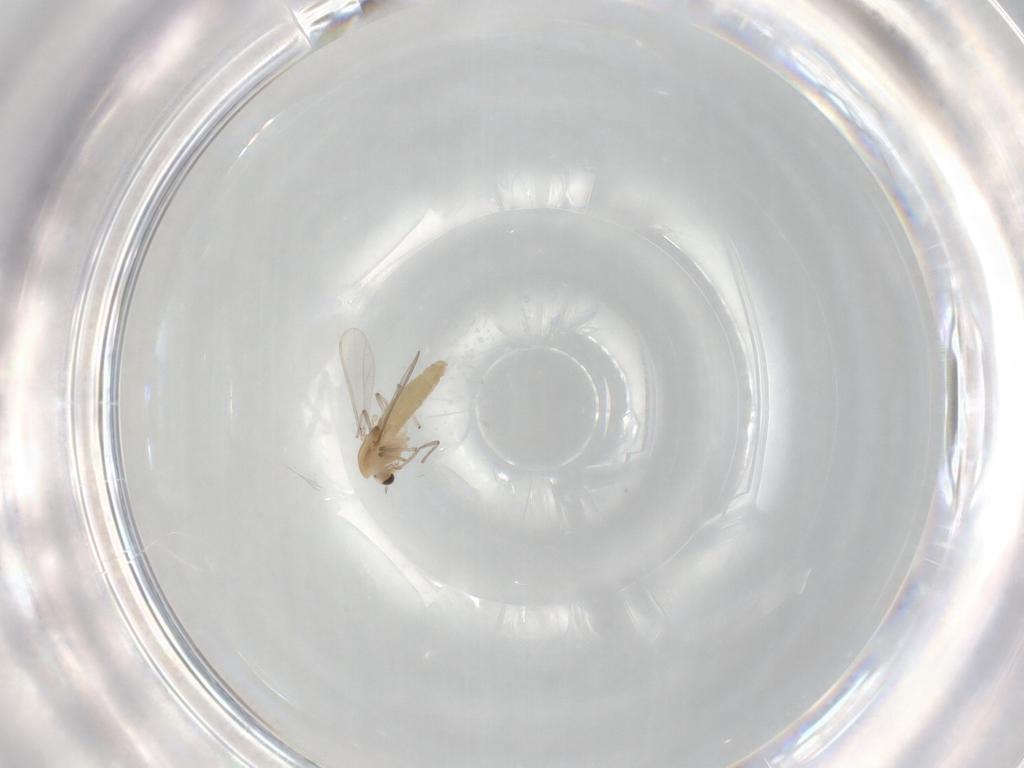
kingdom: Animalia
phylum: Arthropoda
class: Insecta
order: Diptera
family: Chironomidae
